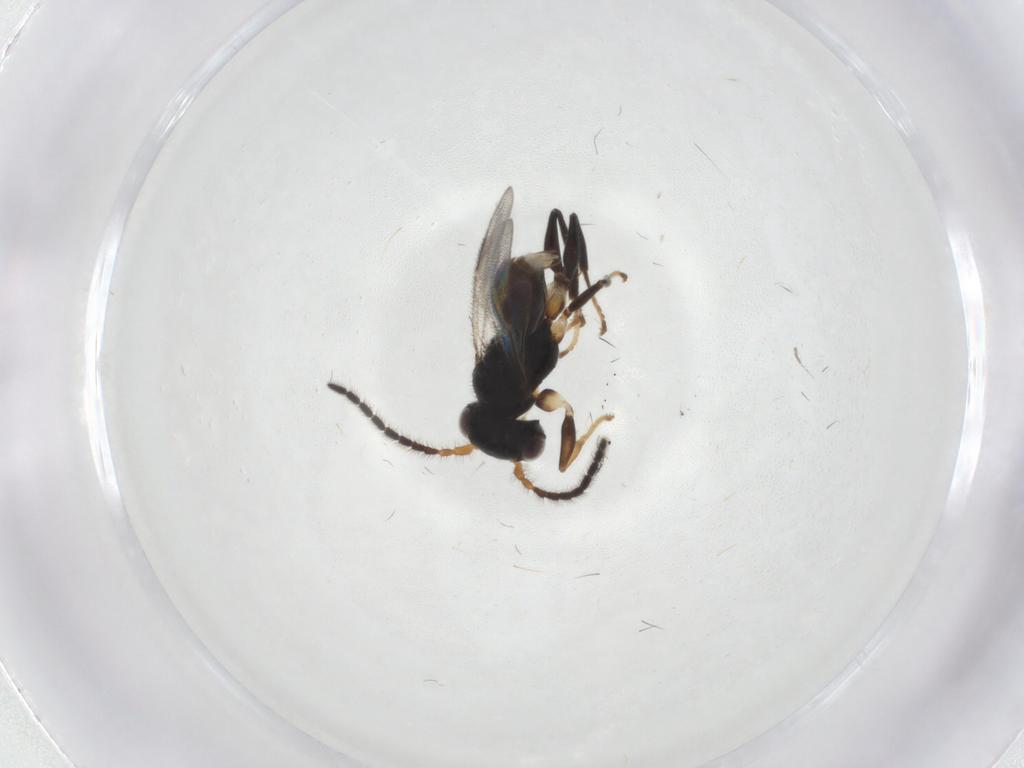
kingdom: Animalia
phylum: Arthropoda
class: Insecta
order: Hymenoptera
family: Dryinidae
